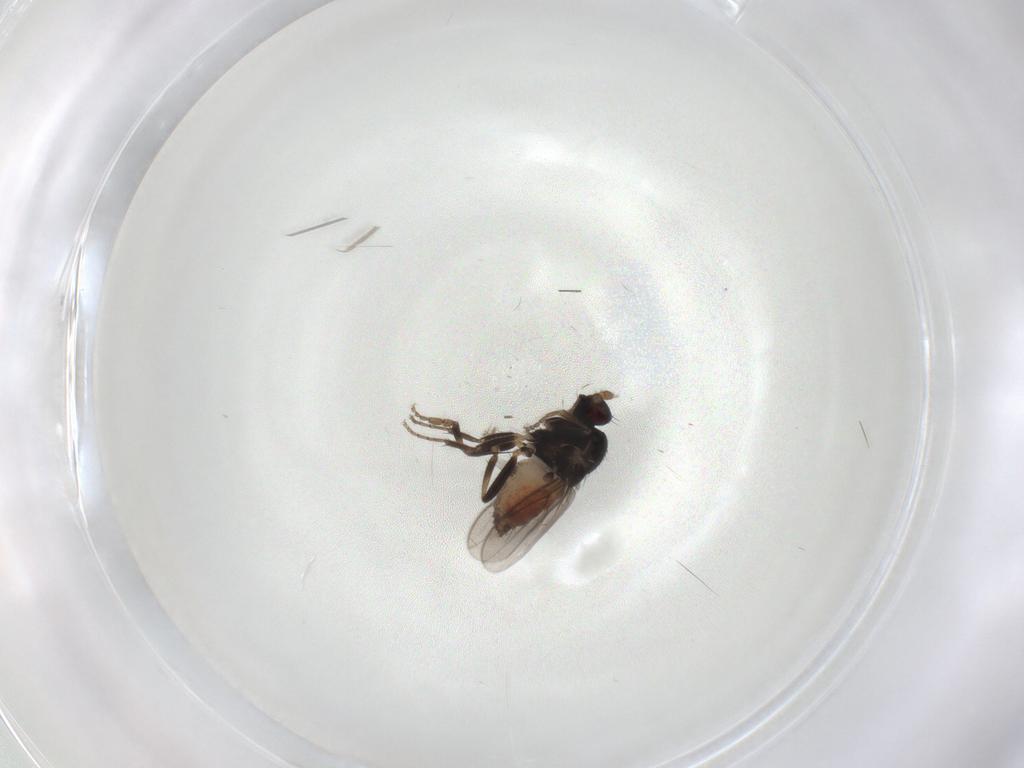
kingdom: Animalia
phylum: Arthropoda
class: Insecta
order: Diptera
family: Sphaeroceridae
